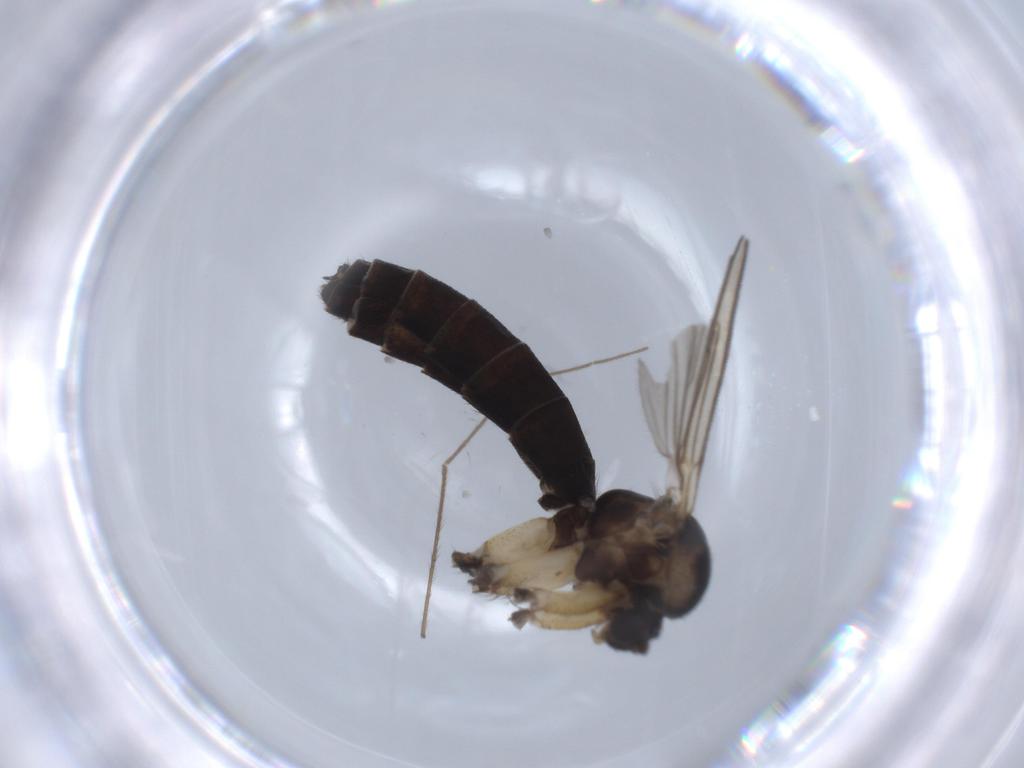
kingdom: Animalia
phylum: Arthropoda
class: Insecta
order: Diptera
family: Mycetophilidae
